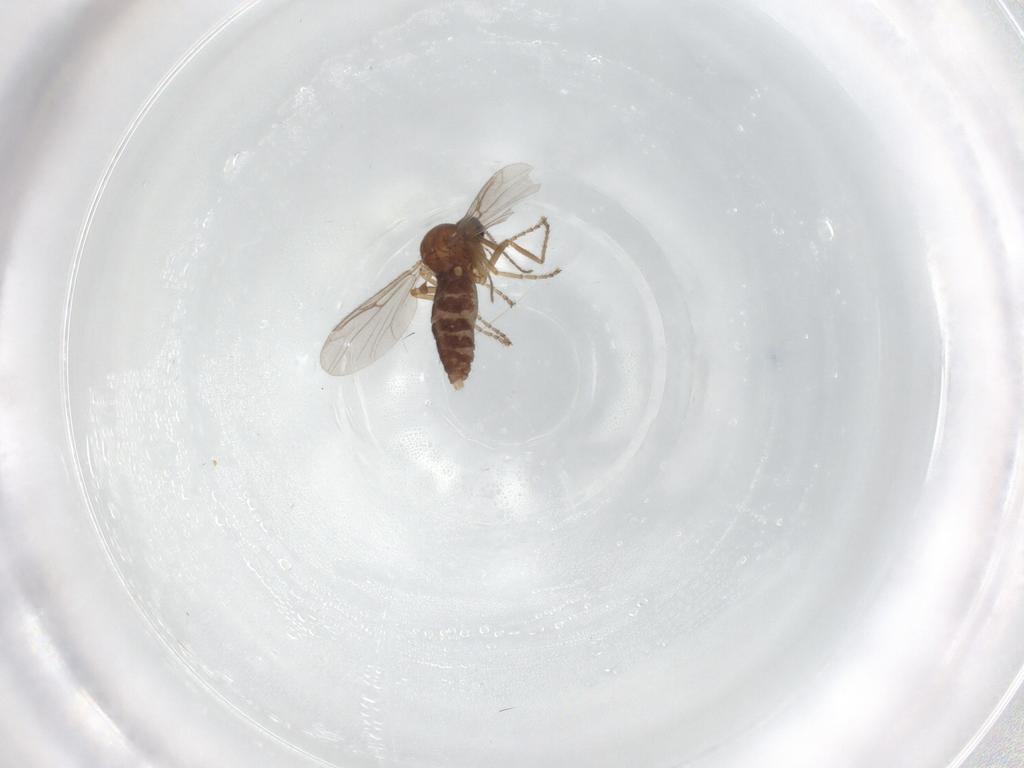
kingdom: Animalia
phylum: Arthropoda
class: Insecta
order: Diptera
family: Ceratopogonidae
